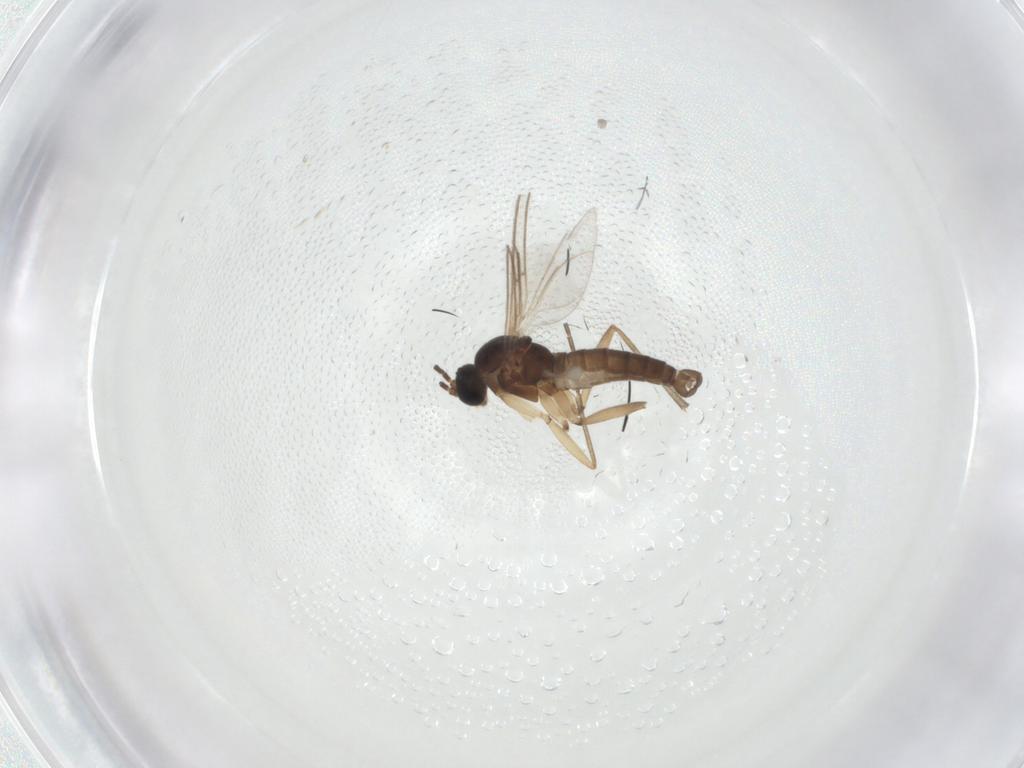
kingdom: Animalia
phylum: Arthropoda
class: Insecta
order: Diptera
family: Sciaridae
